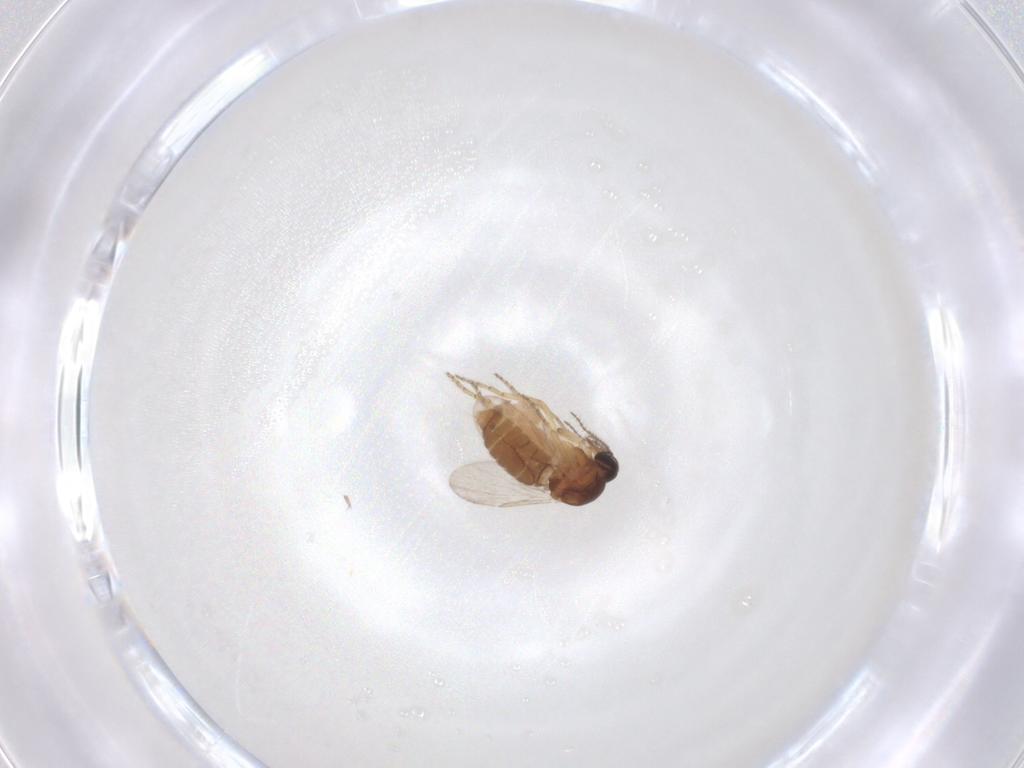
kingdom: Animalia
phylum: Arthropoda
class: Insecta
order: Diptera
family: Ceratopogonidae
